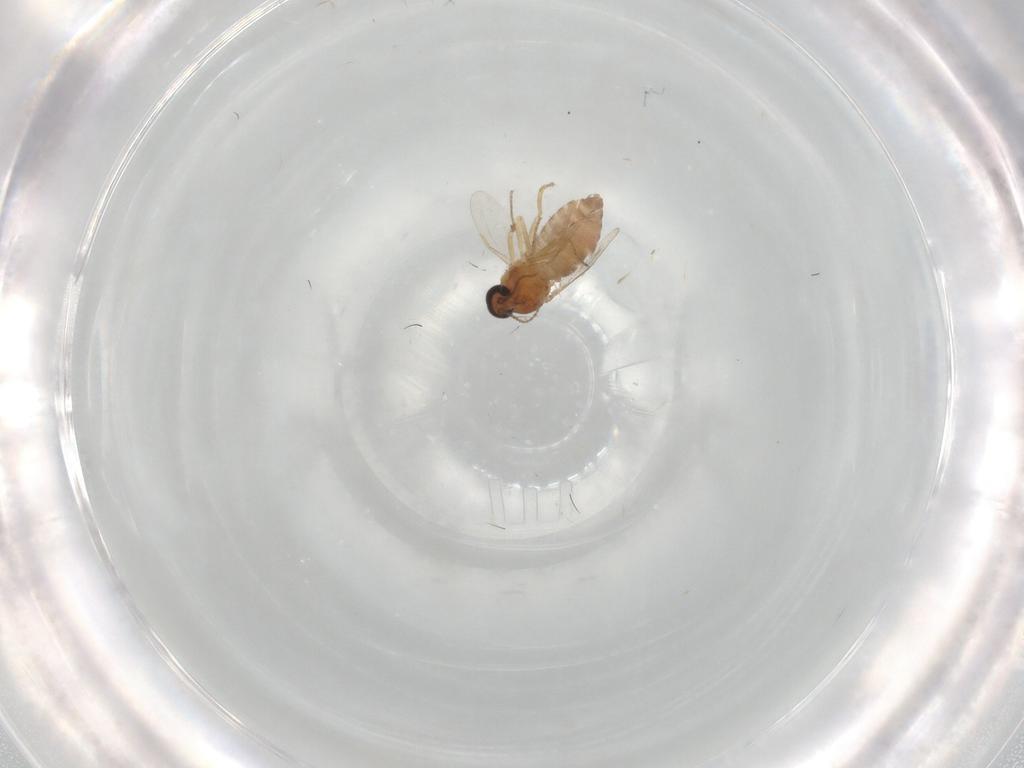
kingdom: Animalia
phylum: Arthropoda
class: Insecta
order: Diptera
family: Ceratopogonidae
